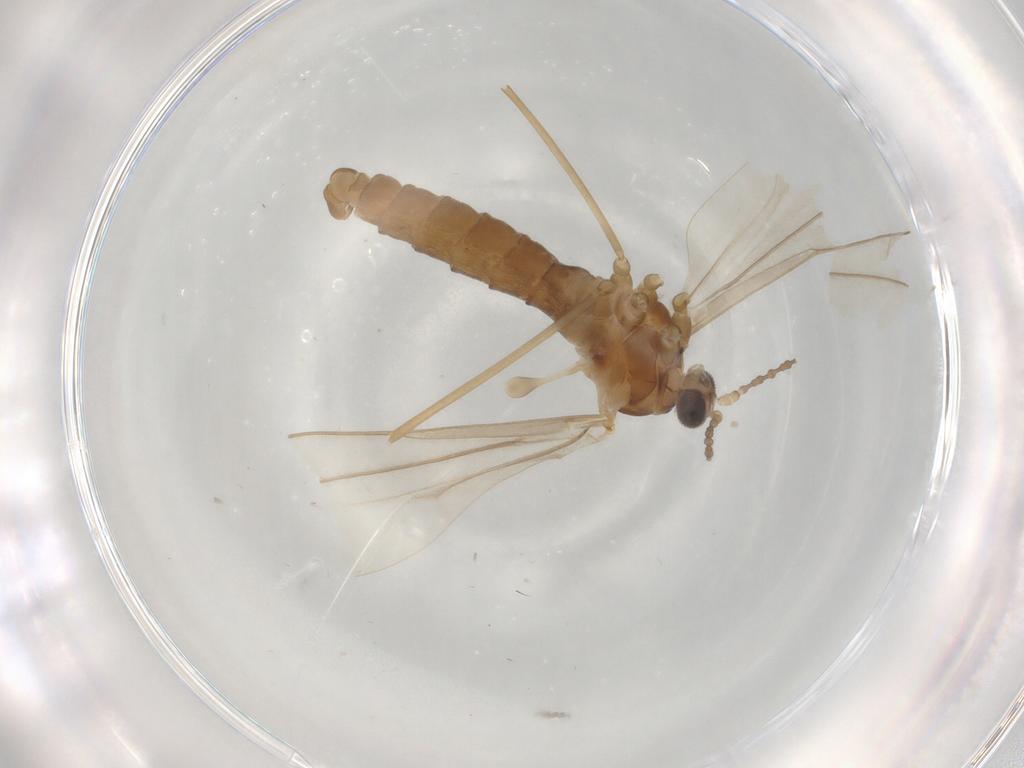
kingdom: Animalia
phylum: Arthropoda
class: Insecta
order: Diptera
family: Cecidomyiidae
